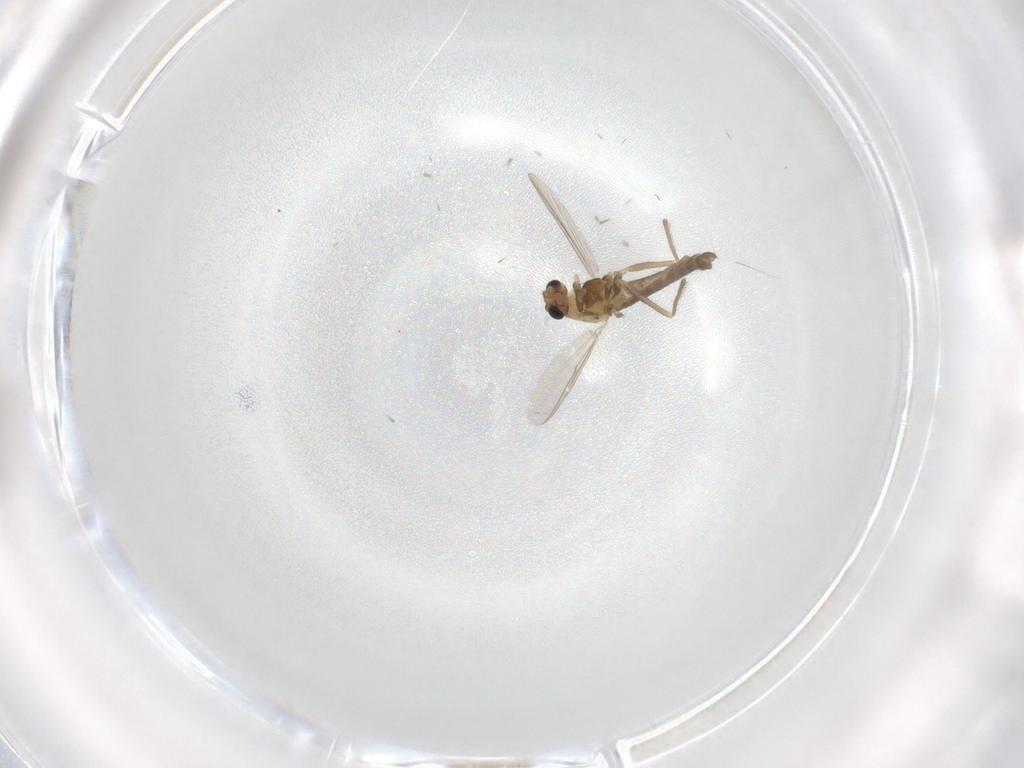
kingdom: Animalia
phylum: Arthropoda
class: Insecta
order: Diptera
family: Chironomidae
